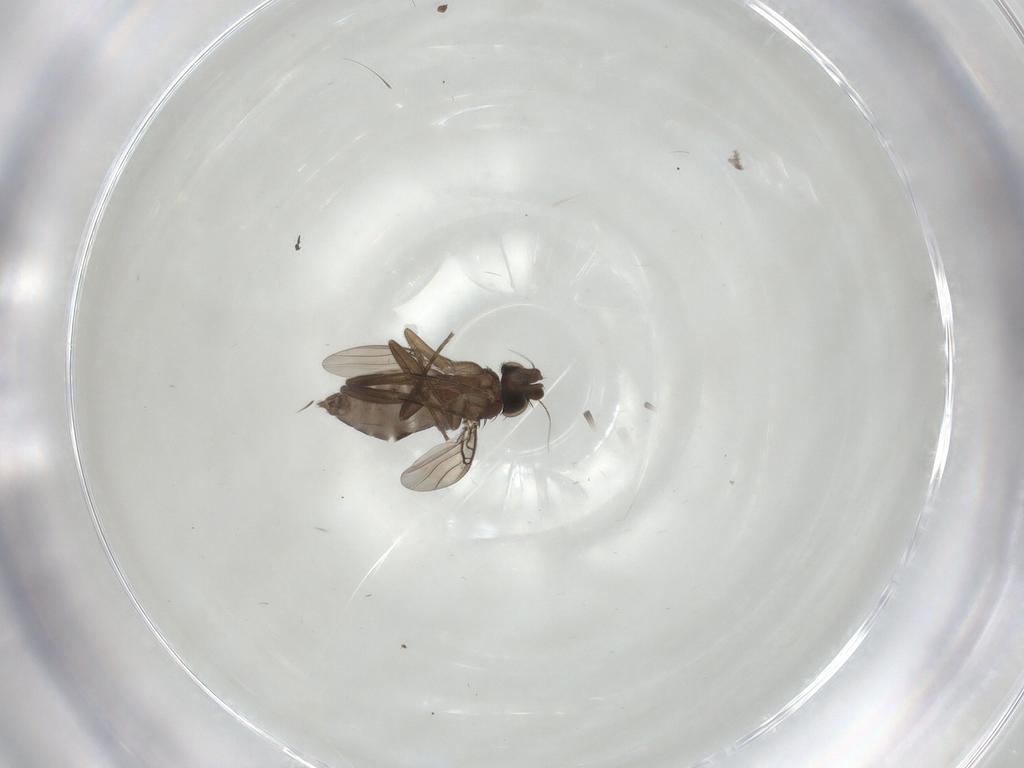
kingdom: Animalia
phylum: Arthropoda
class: Insecta
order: Diptera
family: Phoridae
